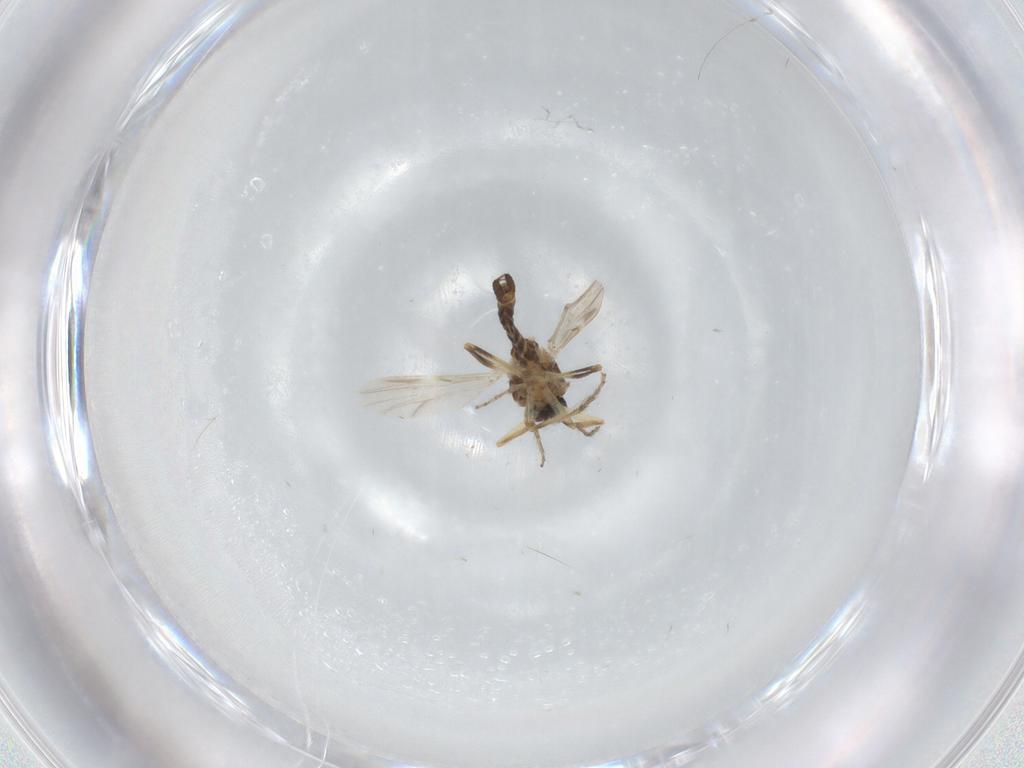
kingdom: Animalia
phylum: Arthropoda
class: Insecta
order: Diptera
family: Ceratopogonidae
